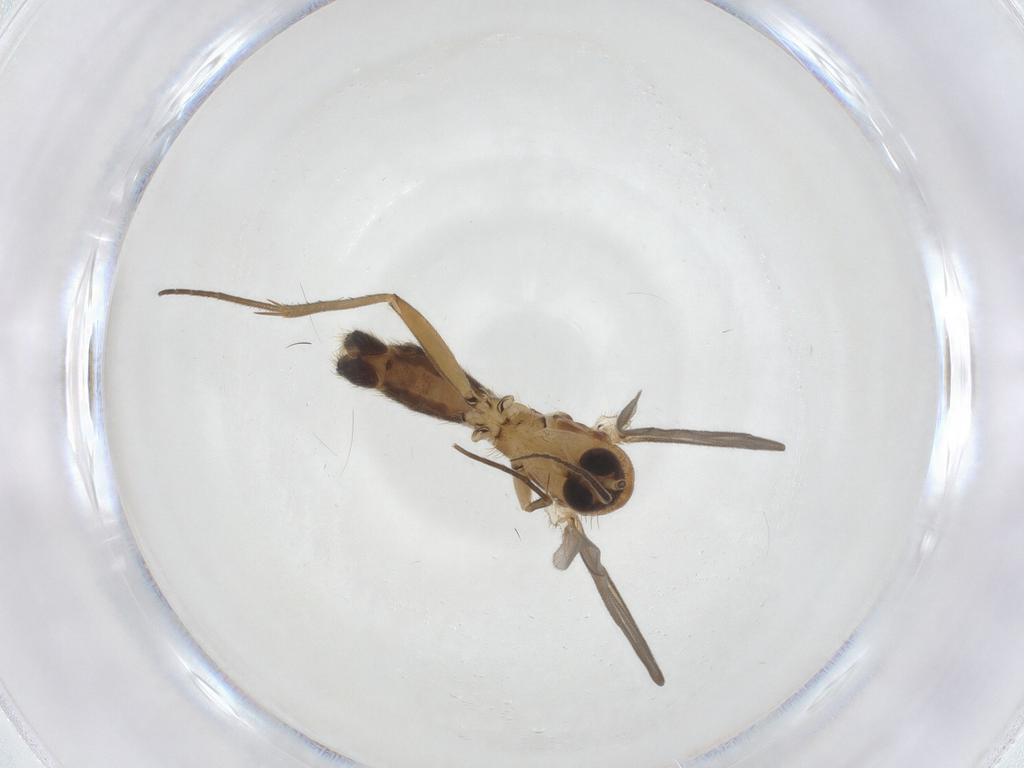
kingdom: Animalia
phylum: Arthropoda
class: Insecta
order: Diptera
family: Mycetophilidae
